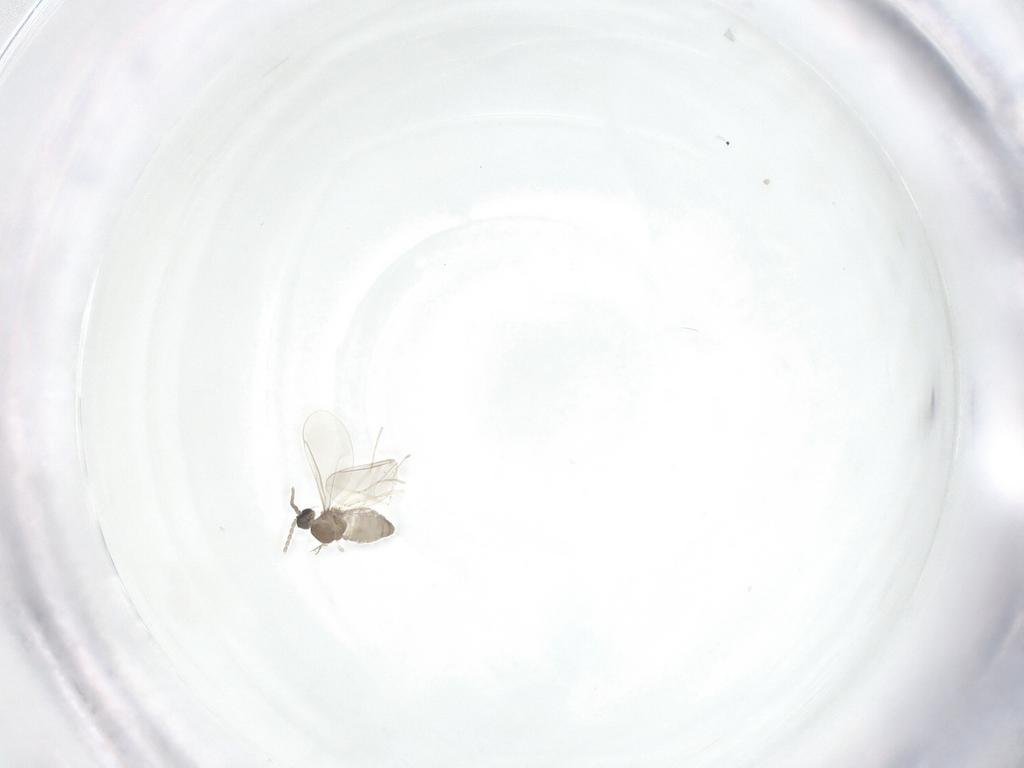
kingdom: Animalia
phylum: Arthropoda
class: Insecta
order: Diptera
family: Cecidomyiidae
